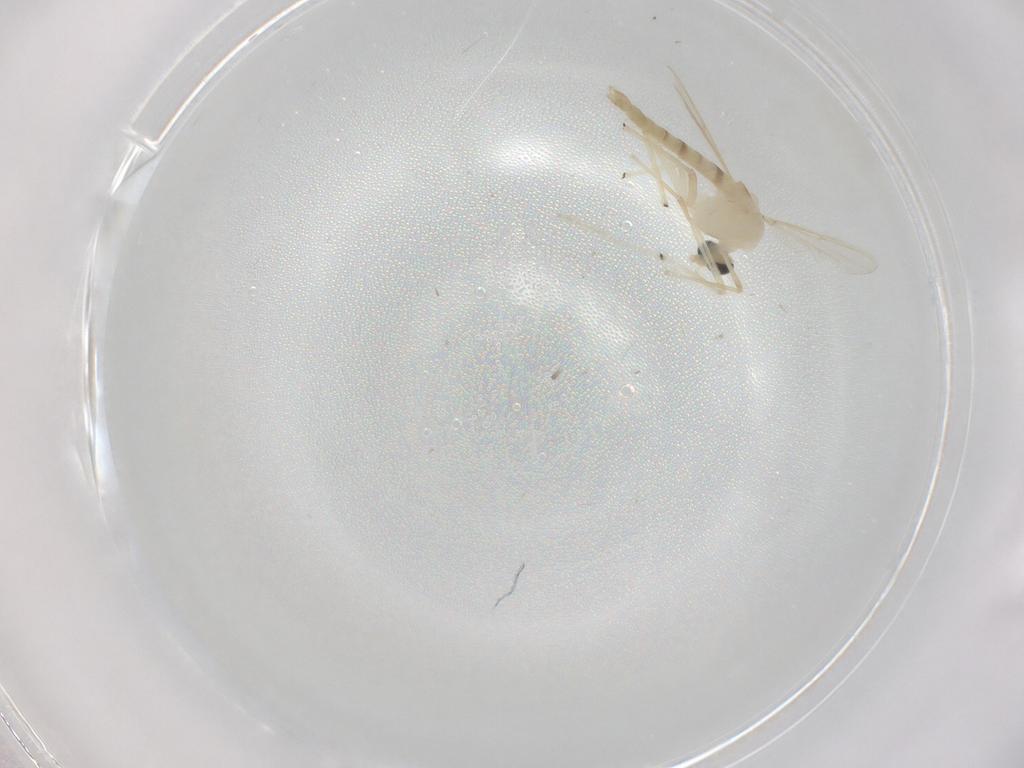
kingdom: Animalia
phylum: Arthropoda
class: Insecta
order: Diptera
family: Chironomidae
